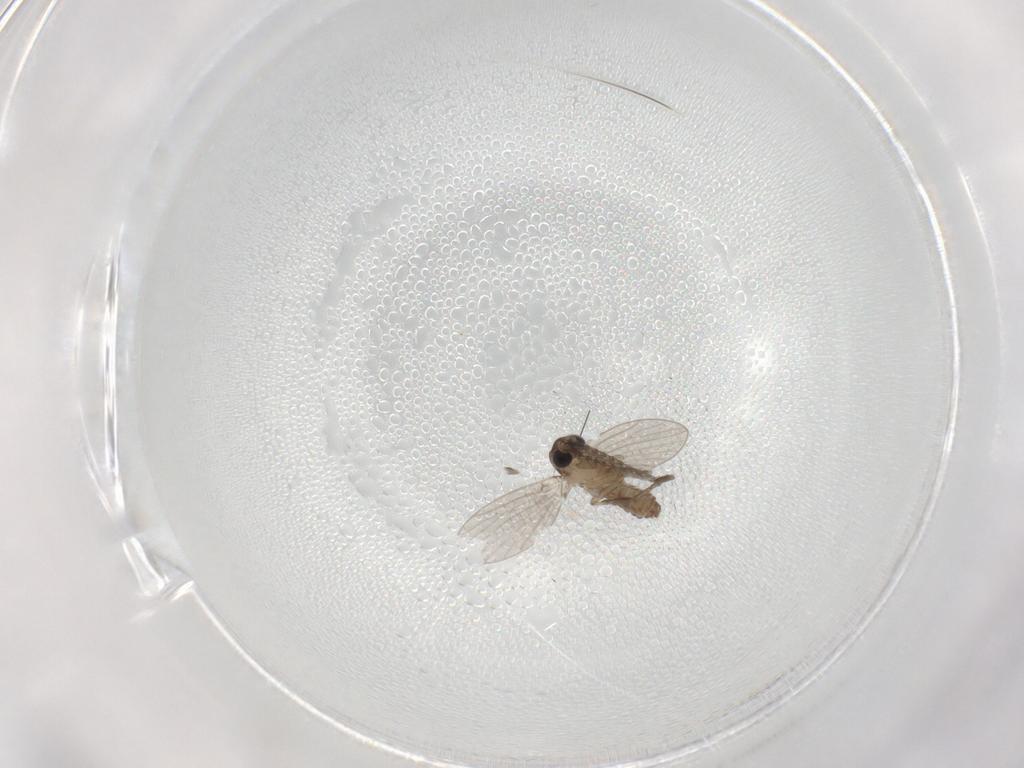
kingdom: Animalia
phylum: Arthropoda
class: Insecta
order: Diptera
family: Psychodidae
